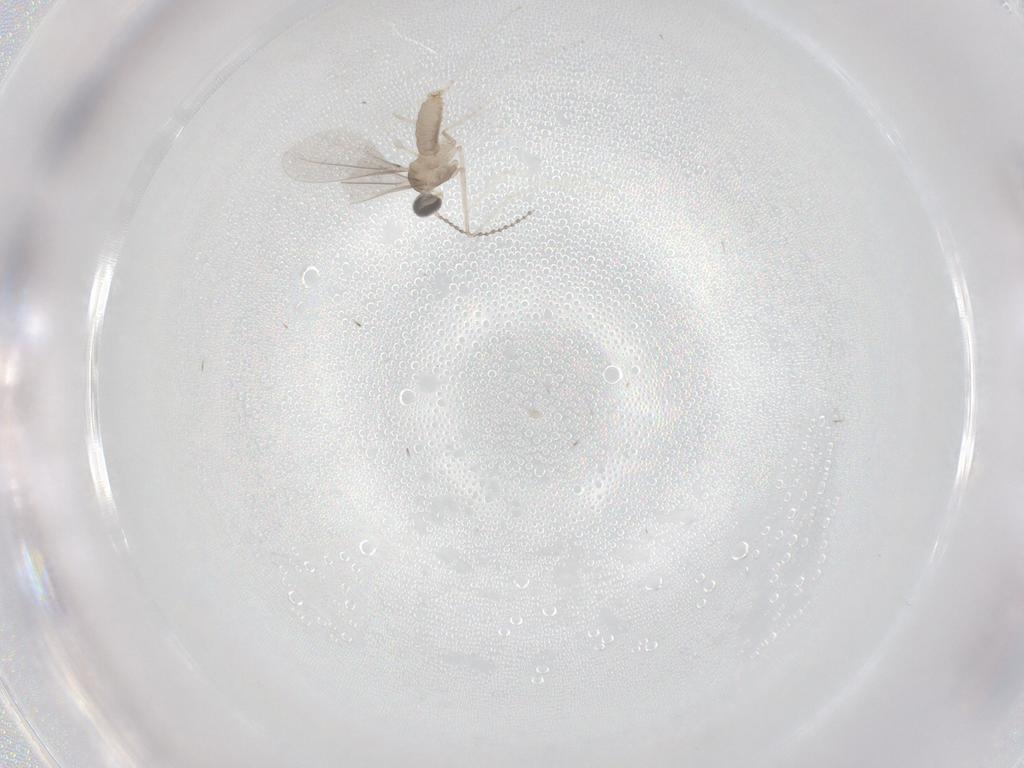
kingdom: Animalia
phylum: Arthropoda
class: Insecta
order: Diptera
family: Cecidomyiidae
